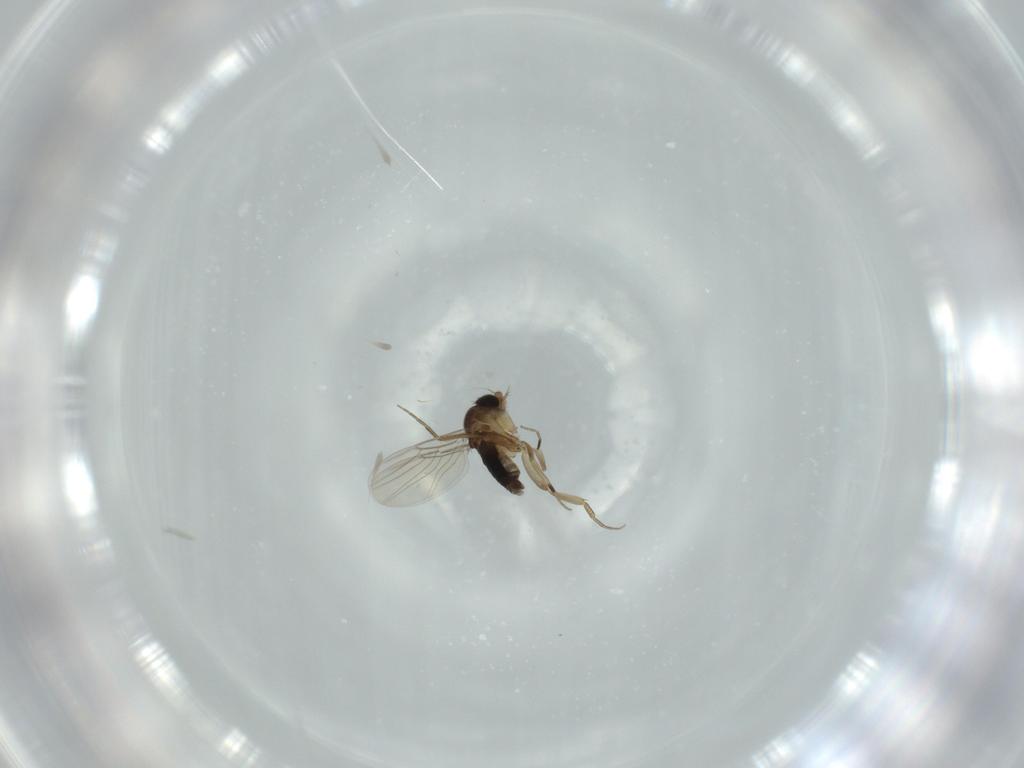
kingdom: Animalia
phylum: Arthropoda
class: Insecta
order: Diptera
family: Phoridae
